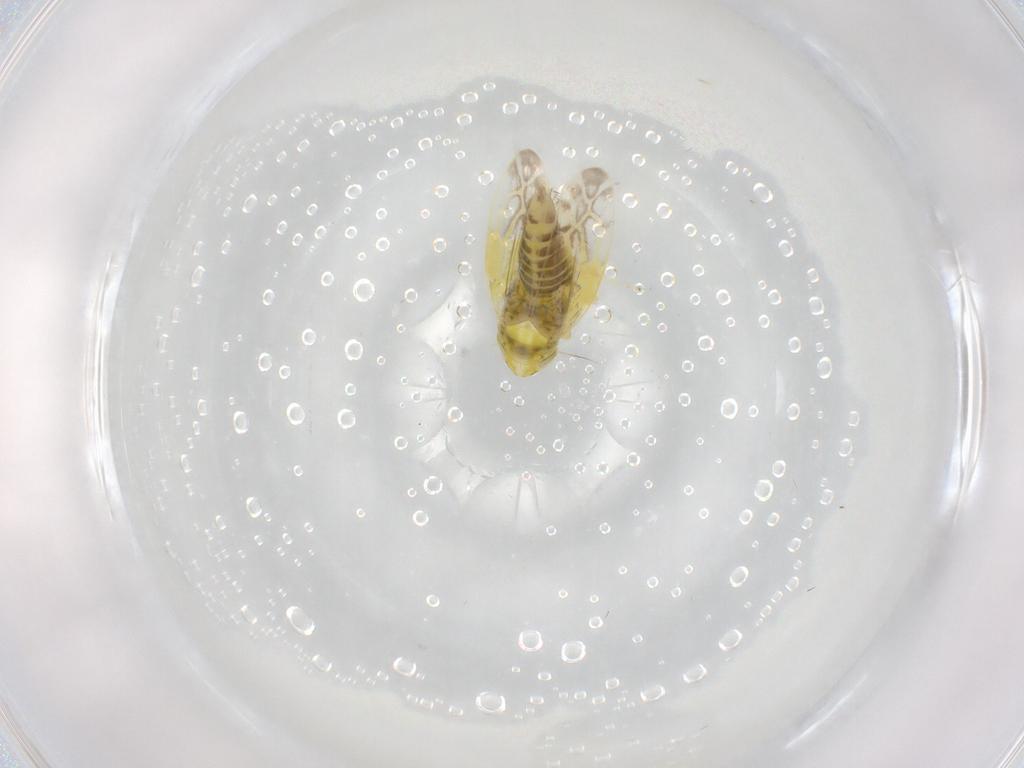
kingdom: Animalia
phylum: Arthropoda
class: Insecta
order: Hemiptera
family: Cicadellidae
